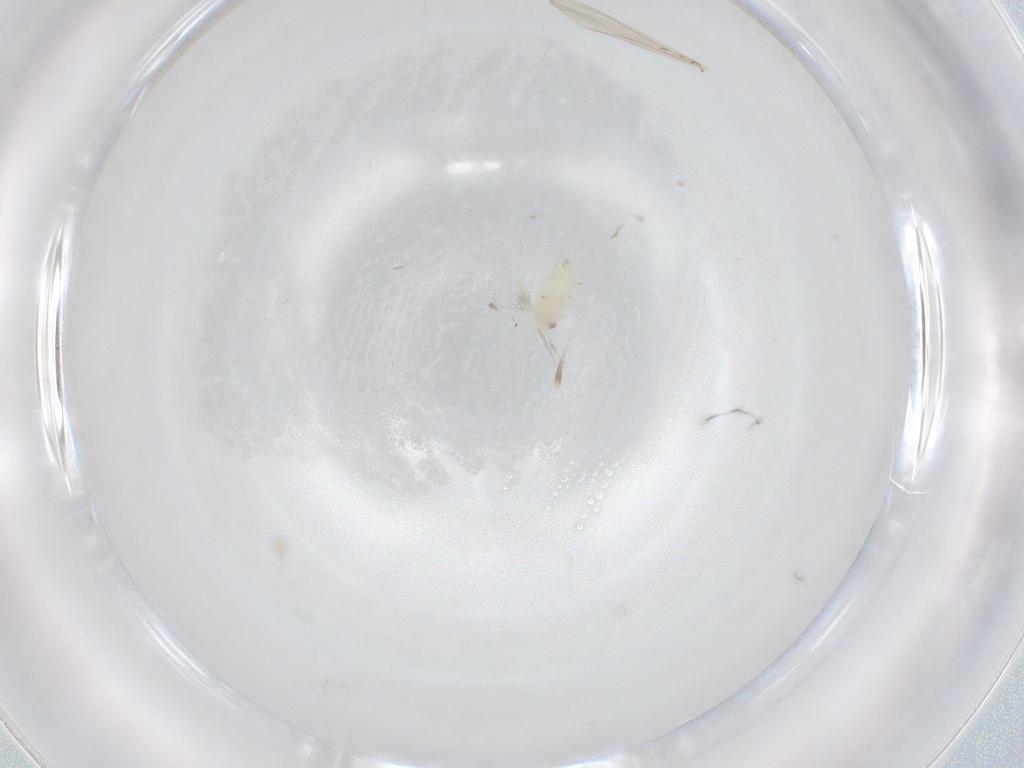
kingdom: Animalia
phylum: Arthropoda
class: Insecta
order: Hemiptera
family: Aleyrodidae
